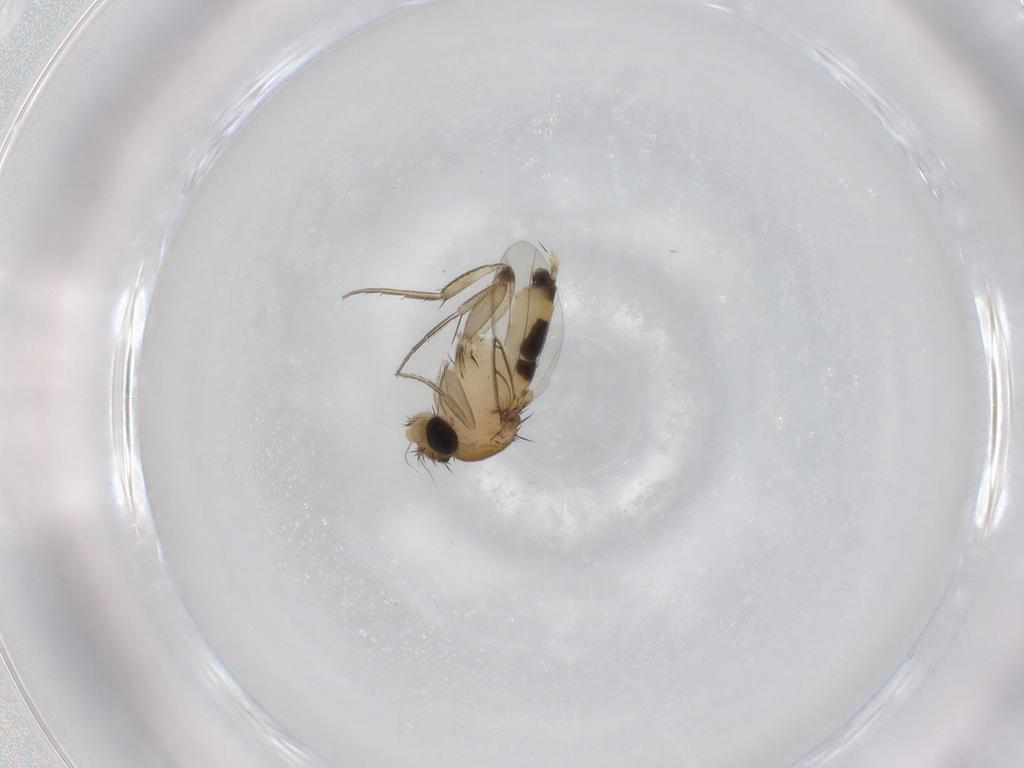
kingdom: Animalia
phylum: Arthropoda
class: Insecta
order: Diptera
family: Phoridae
